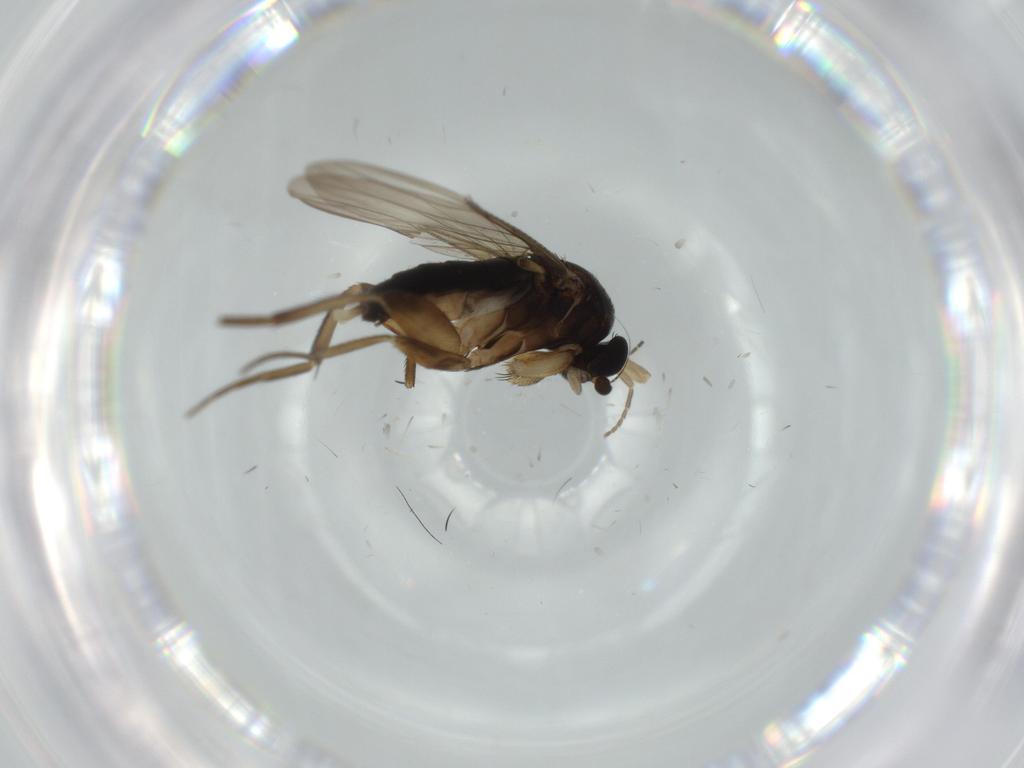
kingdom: Animalia
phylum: Arthropoda
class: Insecta
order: Diptera
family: Phoridae
